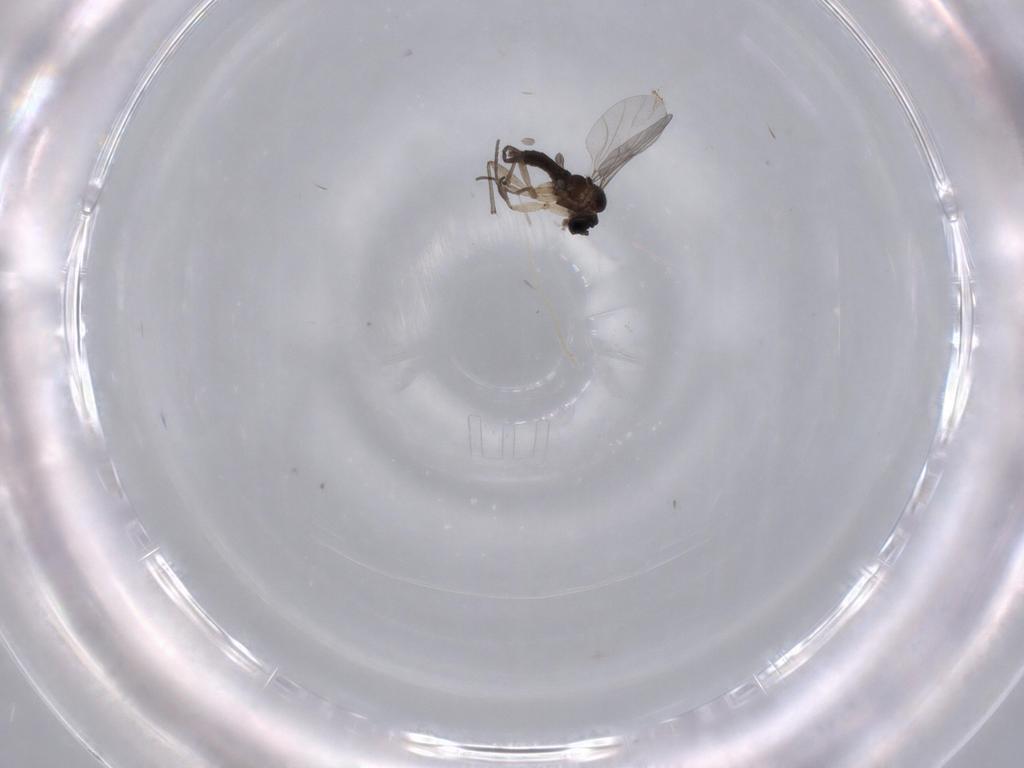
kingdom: Animalia
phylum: Arthropoda
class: Insecta
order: Diptera
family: Sciaridae
